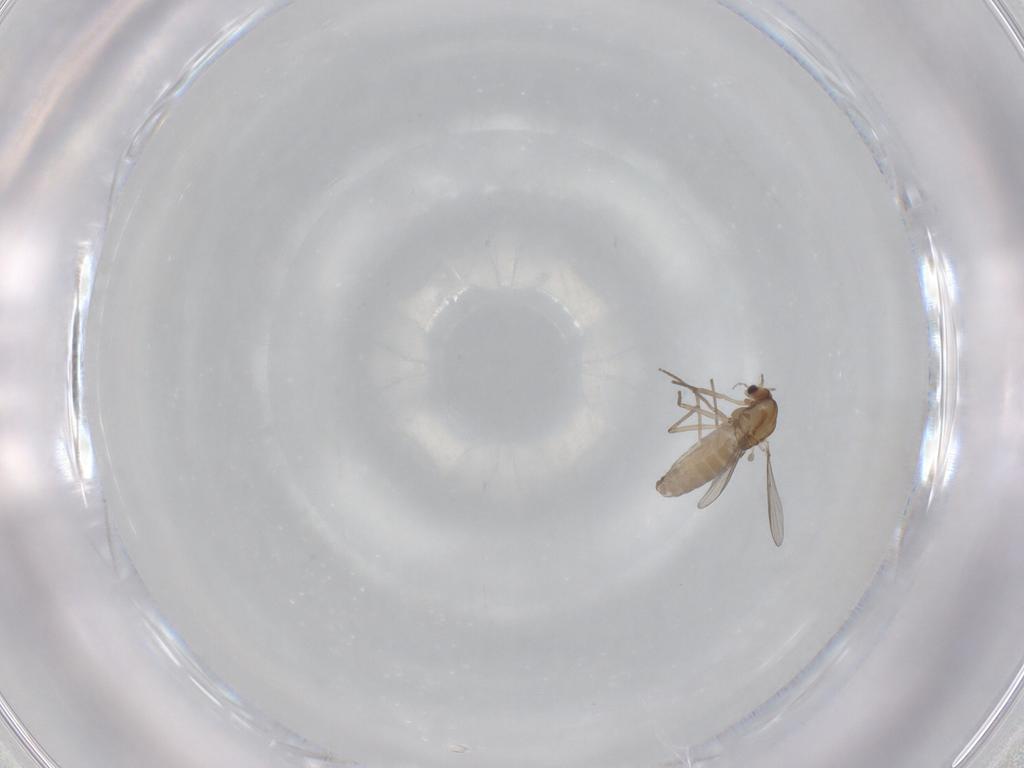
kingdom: Animalia
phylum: Arthropoda
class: Insecta
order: Diptera
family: Chironomidae
